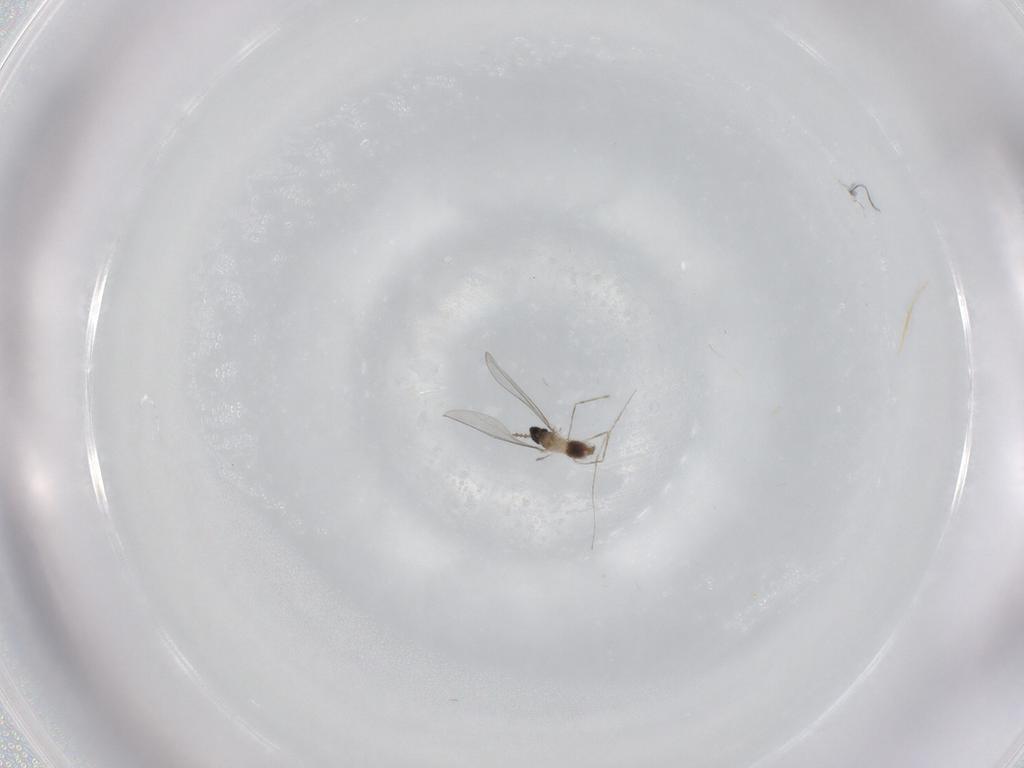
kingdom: Animalia
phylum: Arthropoda
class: Insecta
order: Diptera
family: Cecidomyiidae
